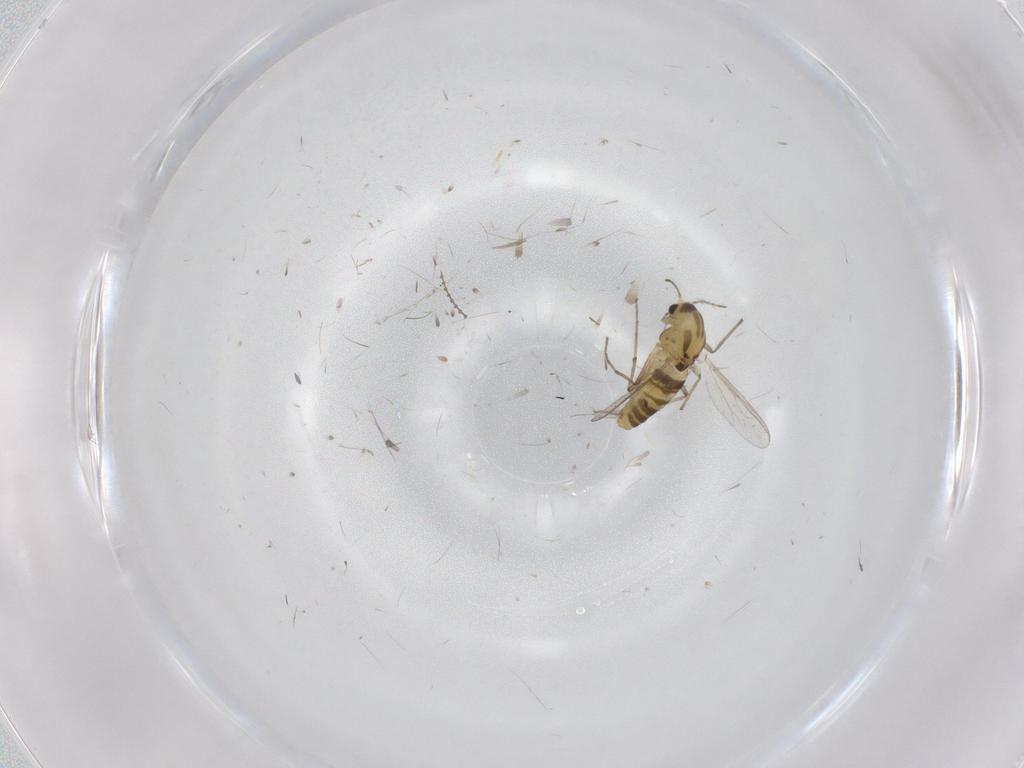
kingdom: Animalia
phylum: Arthropoda
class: Insecta
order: Diptera
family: Chironomidae
